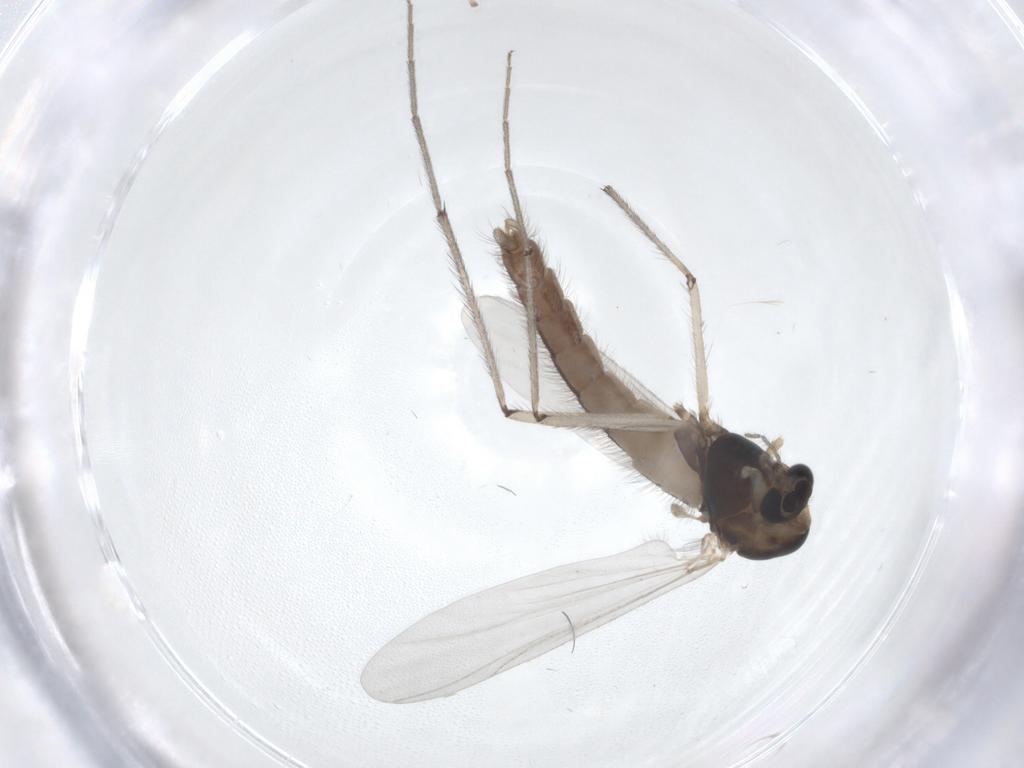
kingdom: Animalia
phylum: Arthropoda
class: Insecta
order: Diptera
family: Chironomidae
